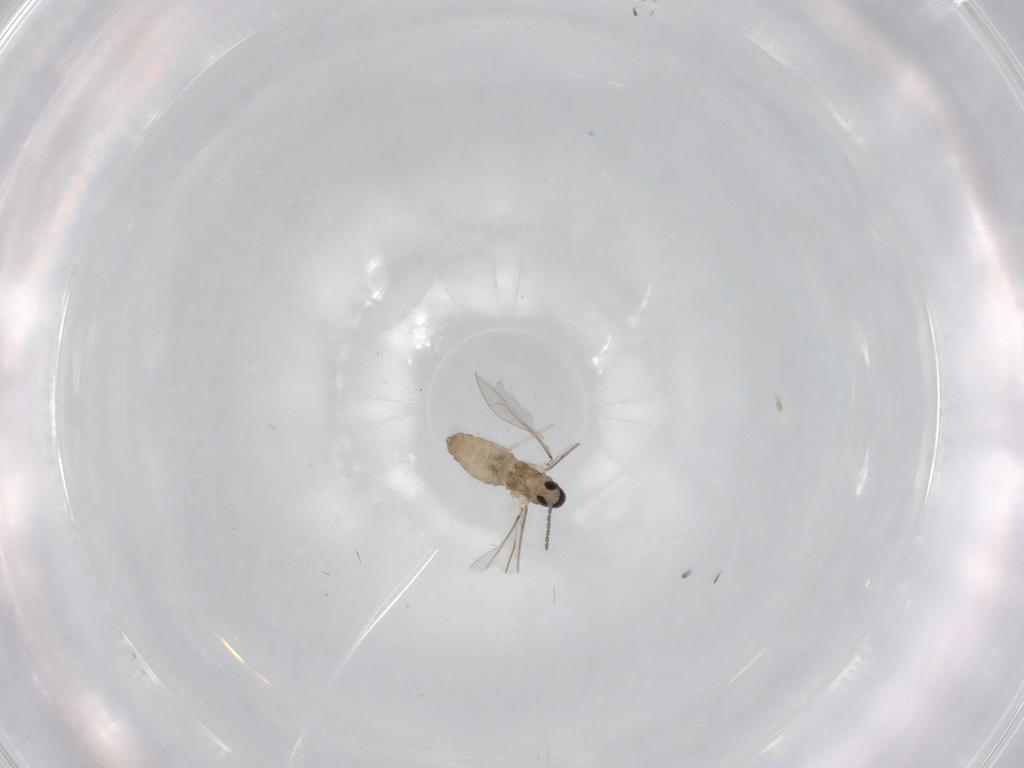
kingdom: Animalia
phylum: Arthropoda
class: Insecta
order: Diptera
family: Cecidomyiidae
